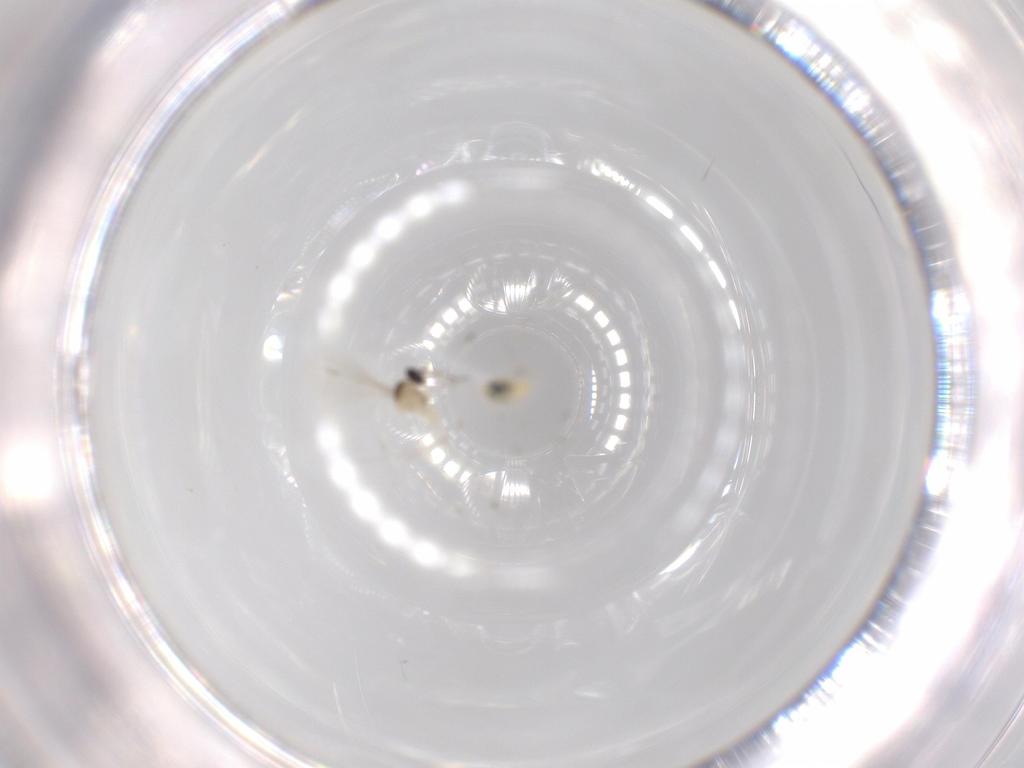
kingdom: Animalia
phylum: Arthropoda
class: Insecta
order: Diptera
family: Cecidomyiidae
